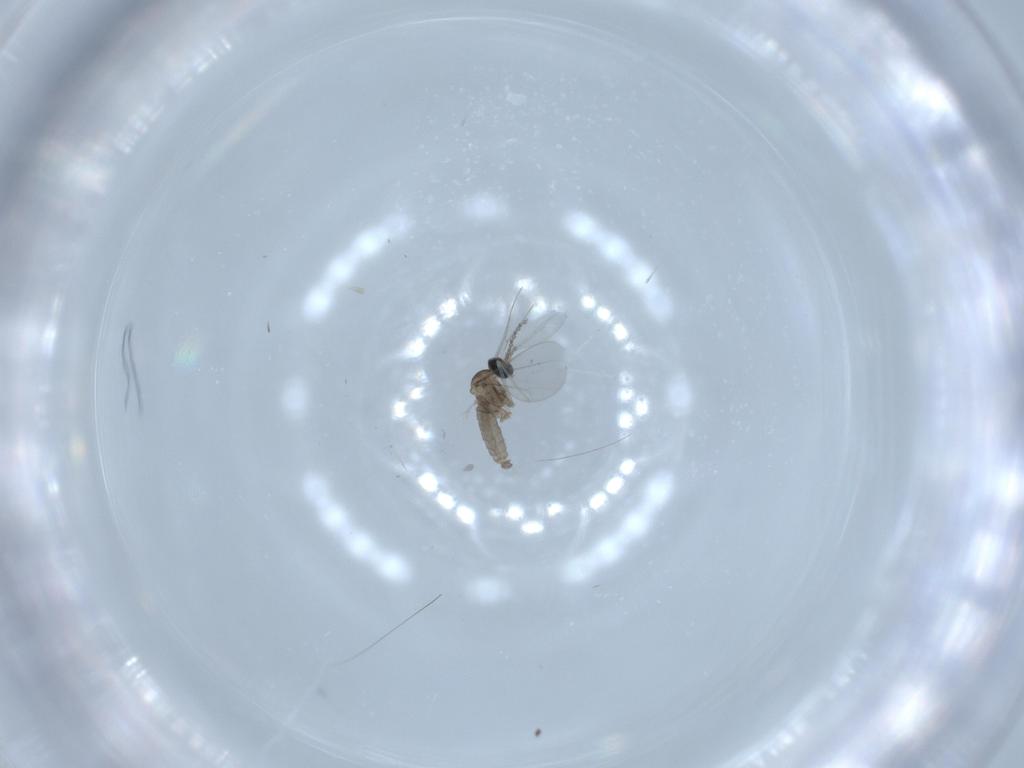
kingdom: Animalia
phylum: Arthropoda
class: Insecta
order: Diptera
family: Cecidomyiidae
